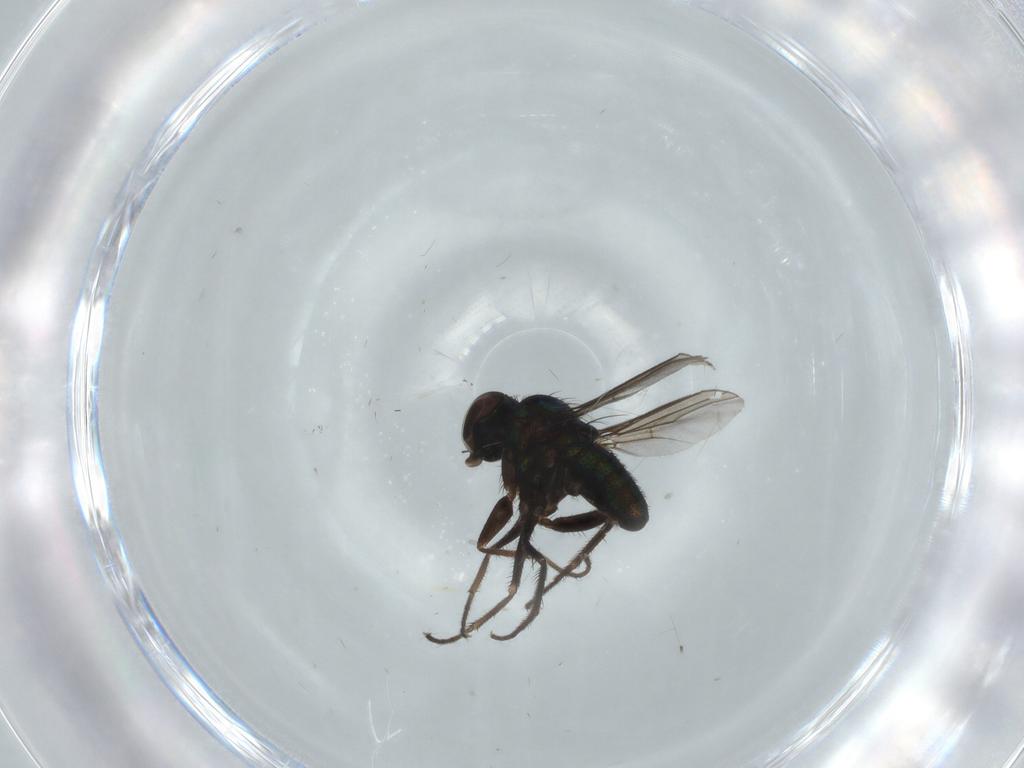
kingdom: Animalia
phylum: Arthropoda
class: Insecta
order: Diptera
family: Dolichopodidae
